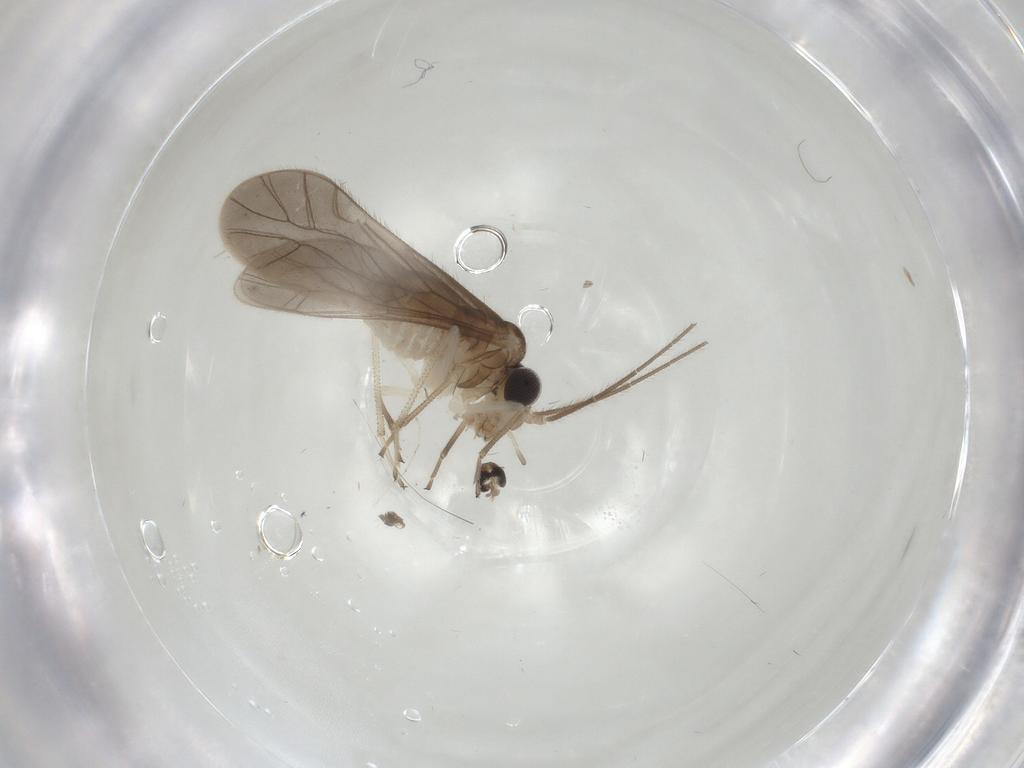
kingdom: Animalia
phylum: Arthropoda
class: Insecta
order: Psocodea
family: Caeciliusidae
